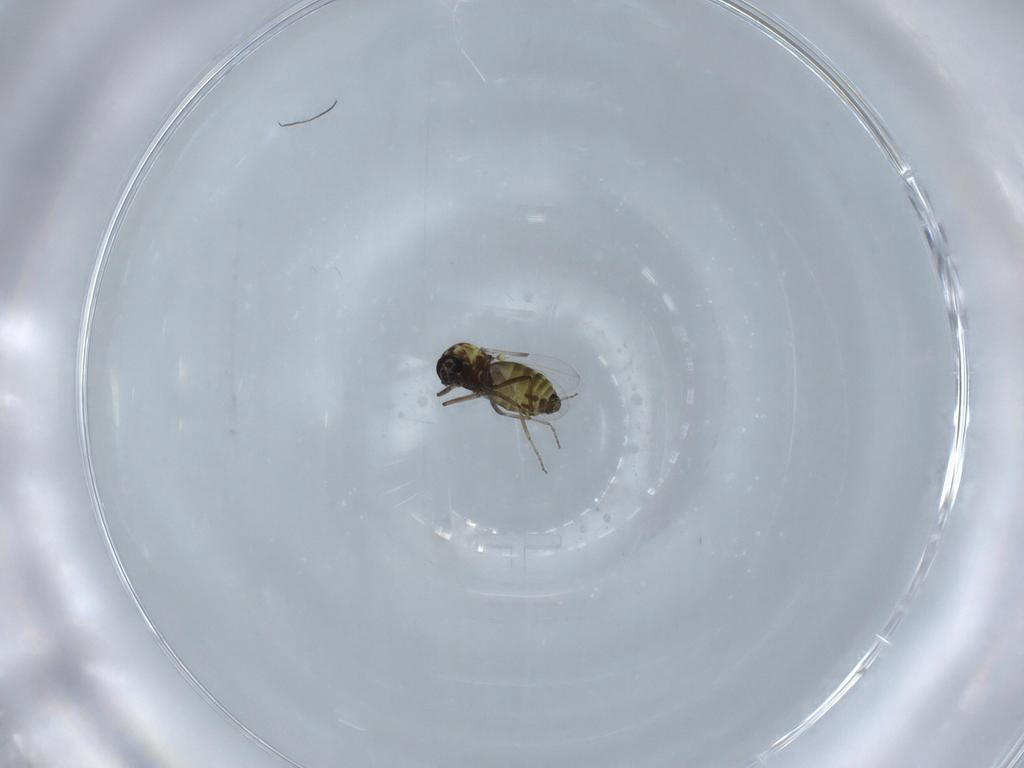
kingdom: Animalia
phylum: Arthropoda
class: Insecta
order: Diptera
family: Ceratopogonidae
